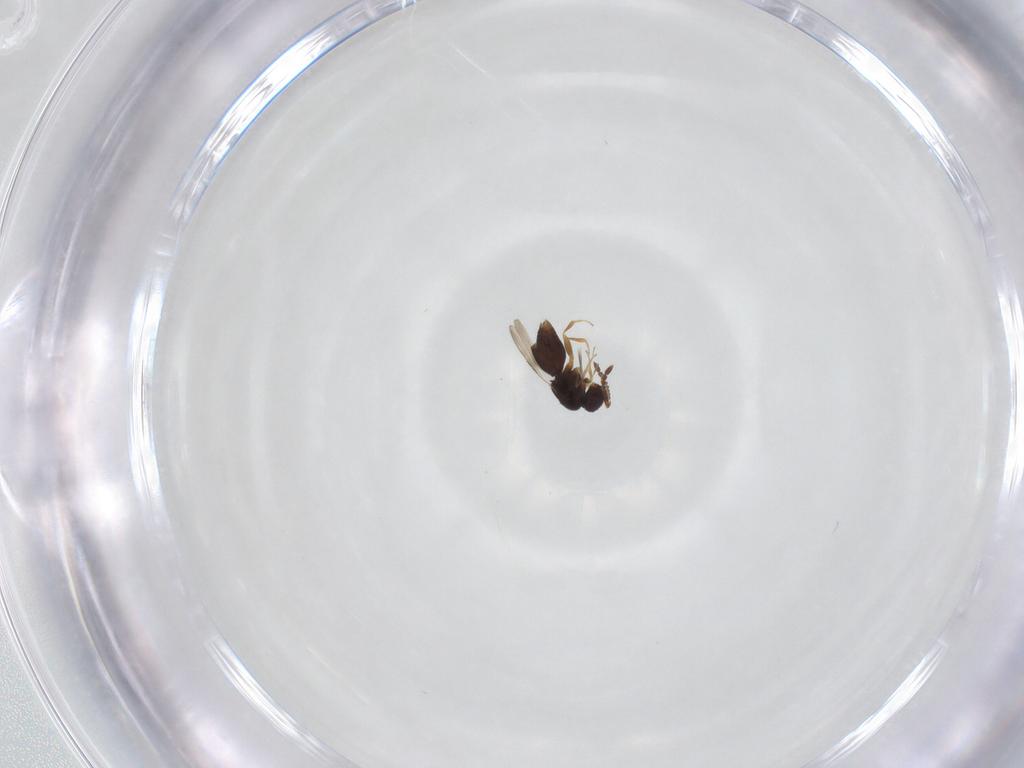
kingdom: Animalia
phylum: Arthropoda
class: Insecta
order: Hymenoptera
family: Ceraphronidae
